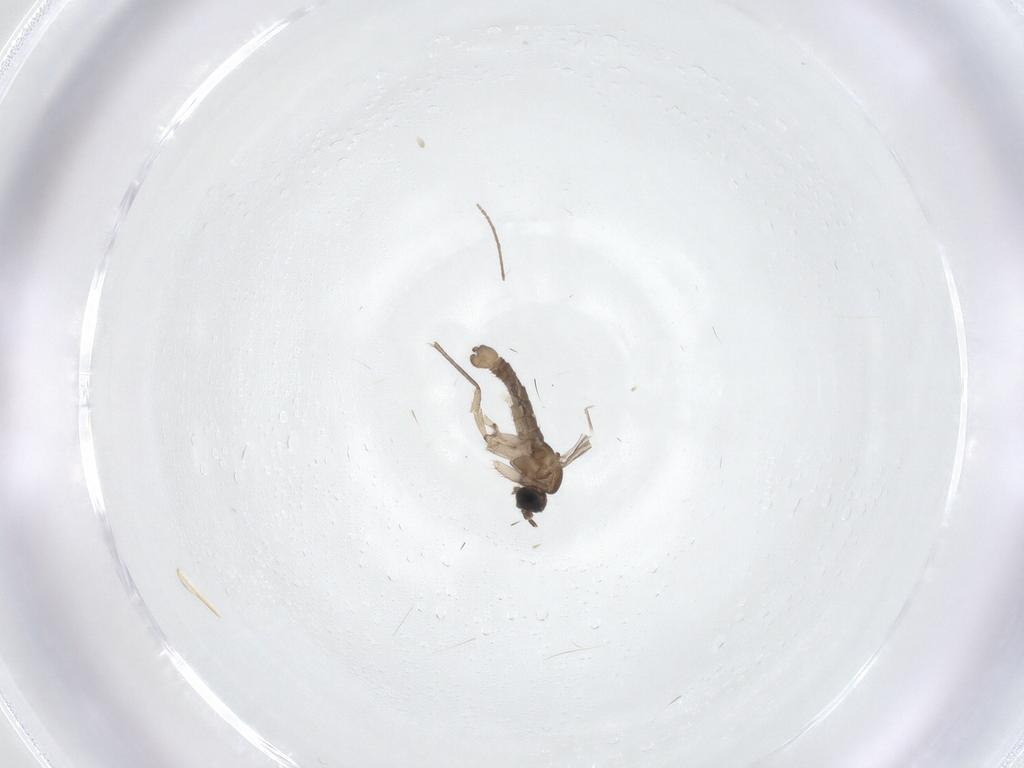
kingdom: Animalia
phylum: Arthropoda
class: Insecta
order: Diptera
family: Sciaridae
